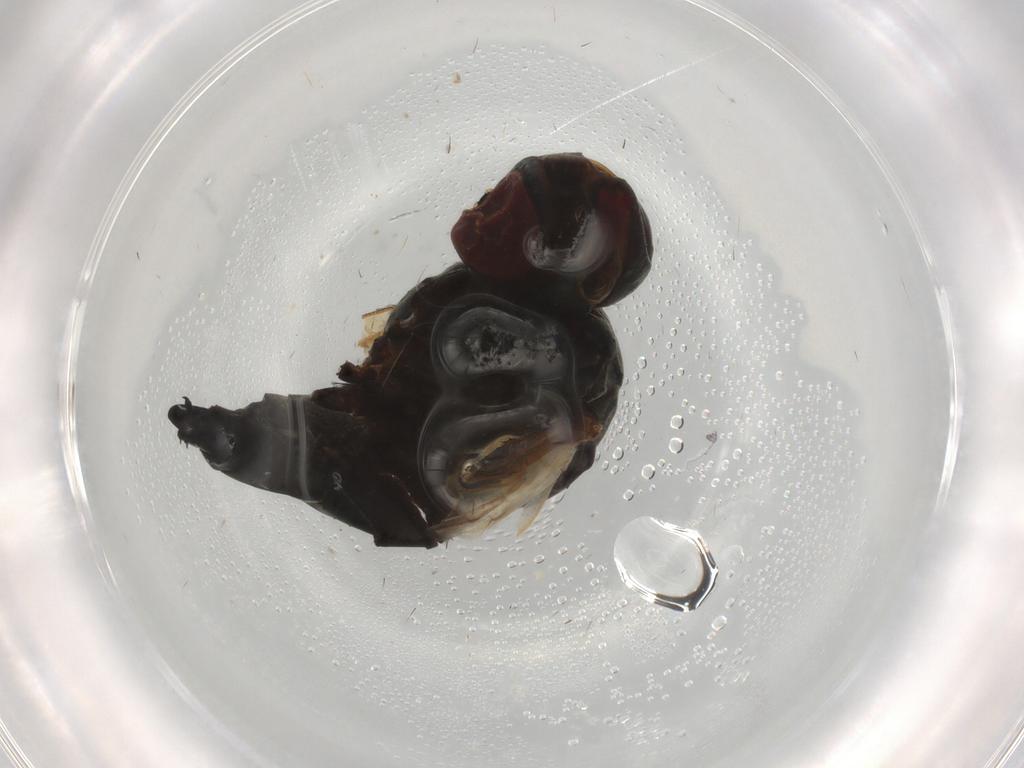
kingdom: Animalia
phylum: Arthropoda
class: Insecta
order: Diptera
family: Tachinidae
